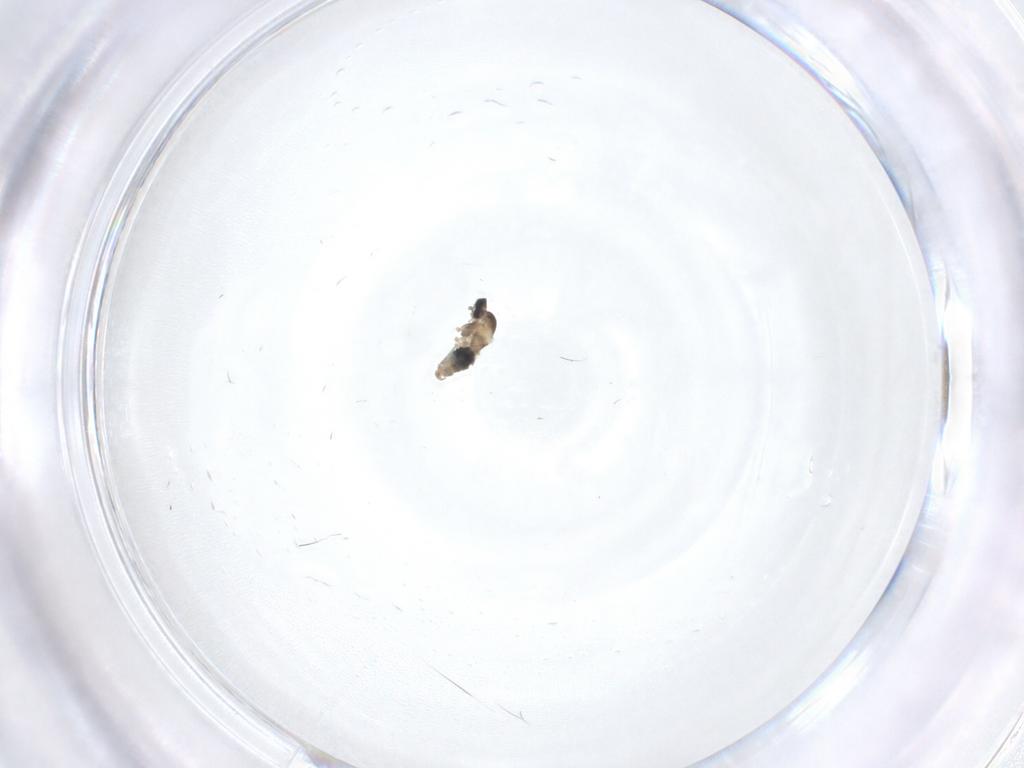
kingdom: Animalia
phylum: Arthropoda
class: Insecta
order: Diptera
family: Cecidomyiidae
